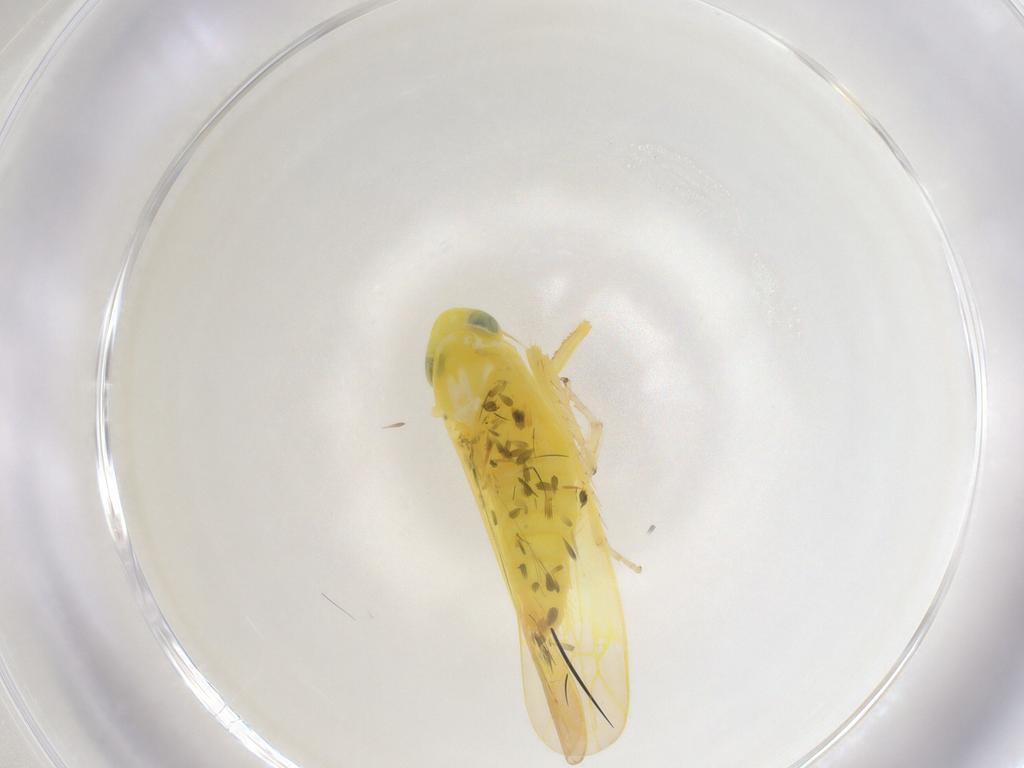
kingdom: Animalia
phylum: Arthropoda
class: Insecta
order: Hemiptera
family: Cicadellidae
